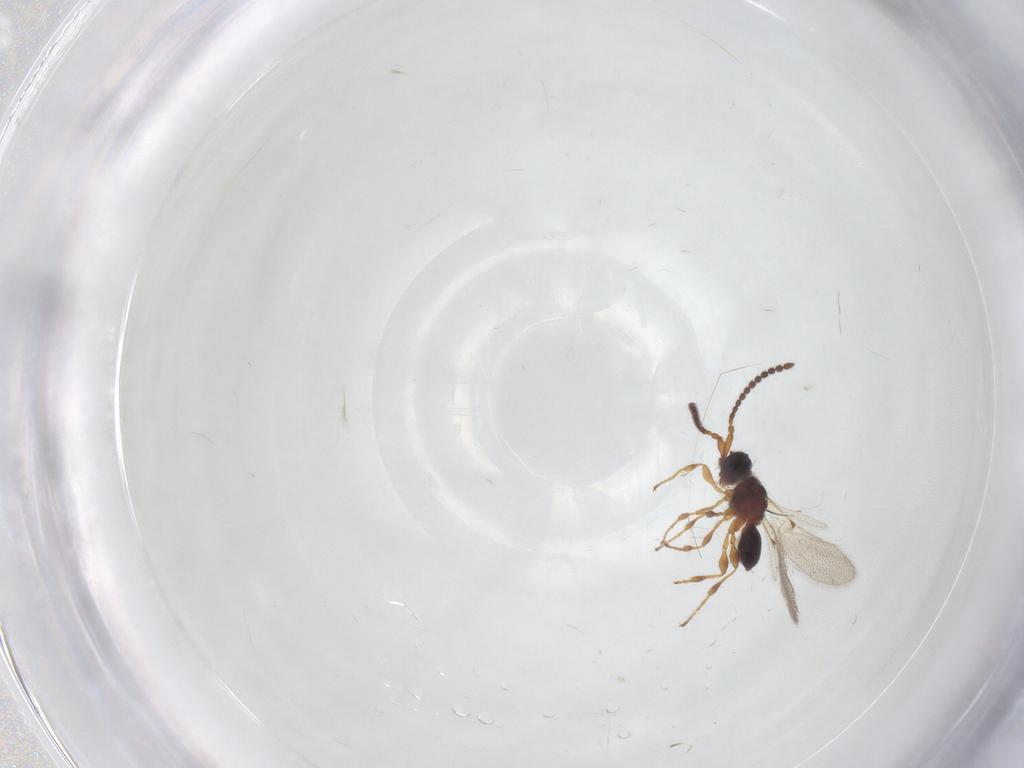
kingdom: Animalia
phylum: Arthropoda
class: Insecta
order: Hymenoptera
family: Diapriidae
